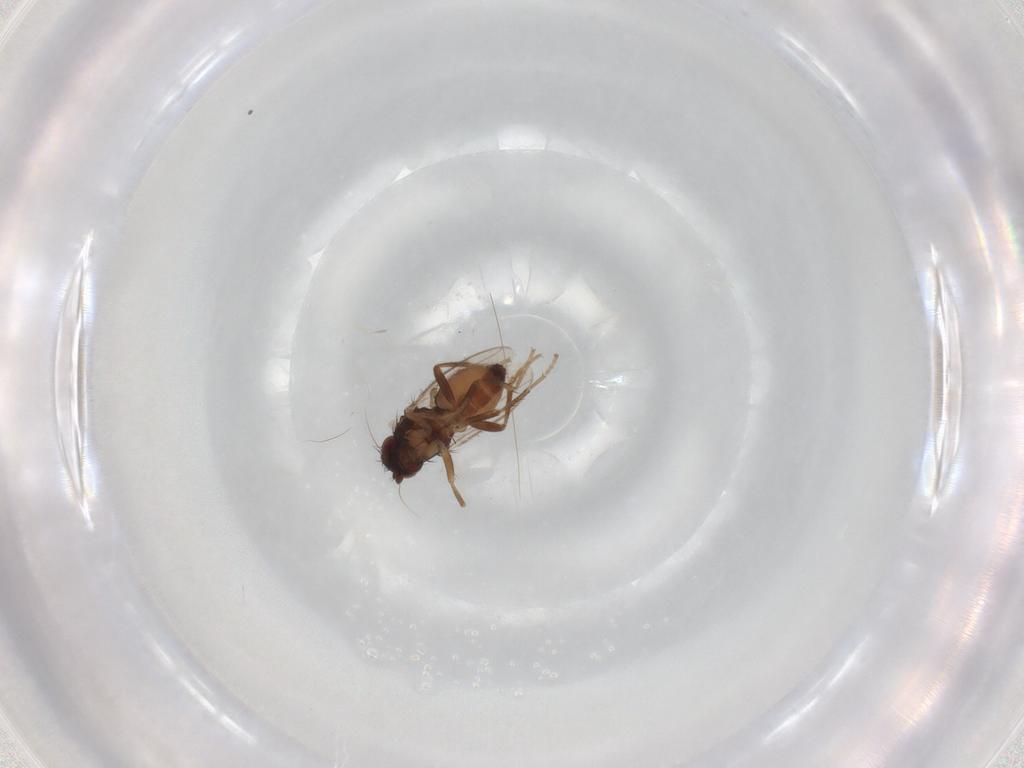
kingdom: Animalia
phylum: Arthropoda
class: Insecta
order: Diptera
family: Sphaeroceridae
